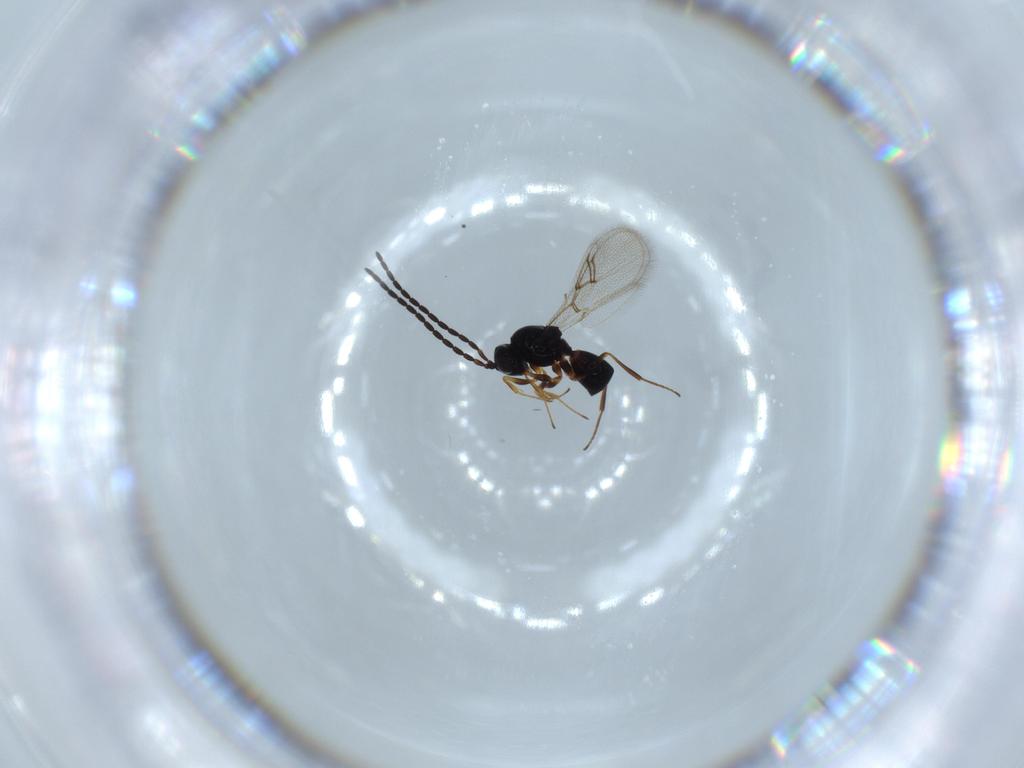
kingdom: Animalia
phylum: Arthropoda
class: Insecta
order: Hymenoptera
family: Figitidae
